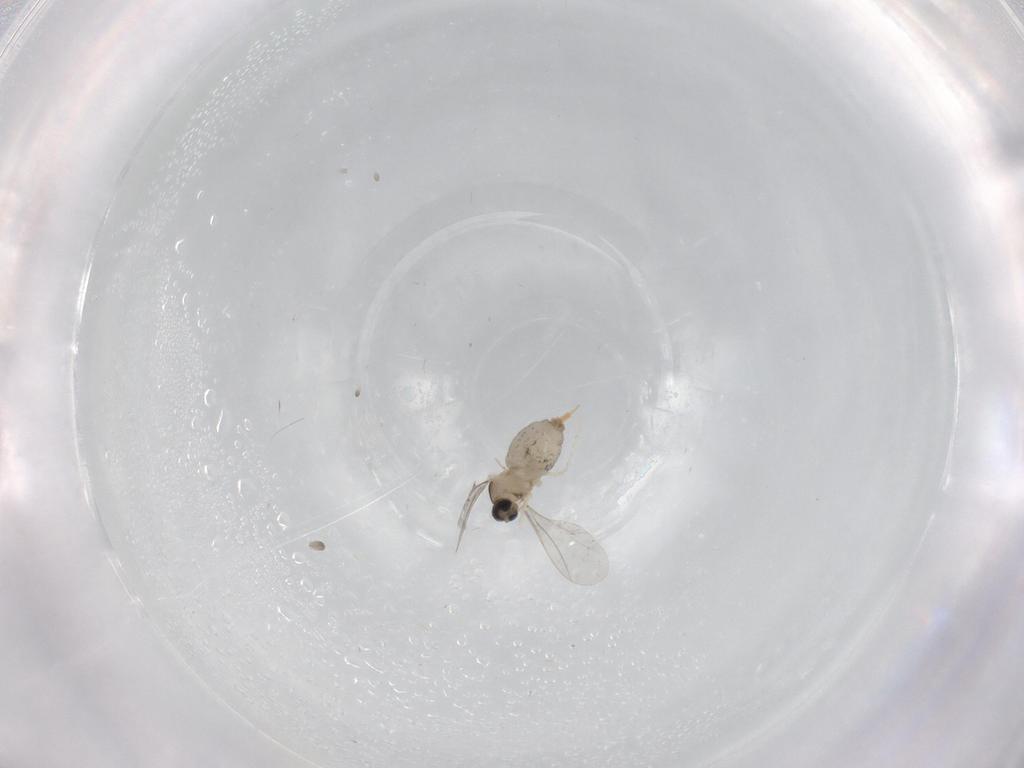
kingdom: Animalia
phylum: Arthropoda
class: Insecta
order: Diptera
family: Cecidomyiidae
